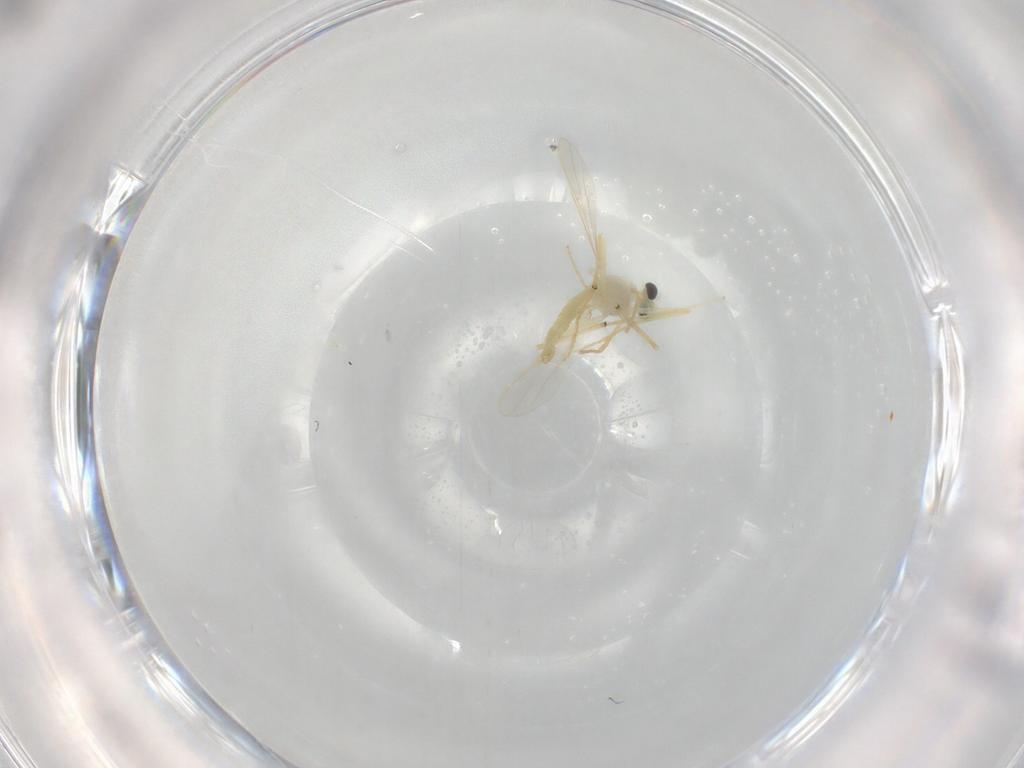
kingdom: Animalia
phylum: Arthropoda
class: Insecta
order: Diptera
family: Chironomidae
